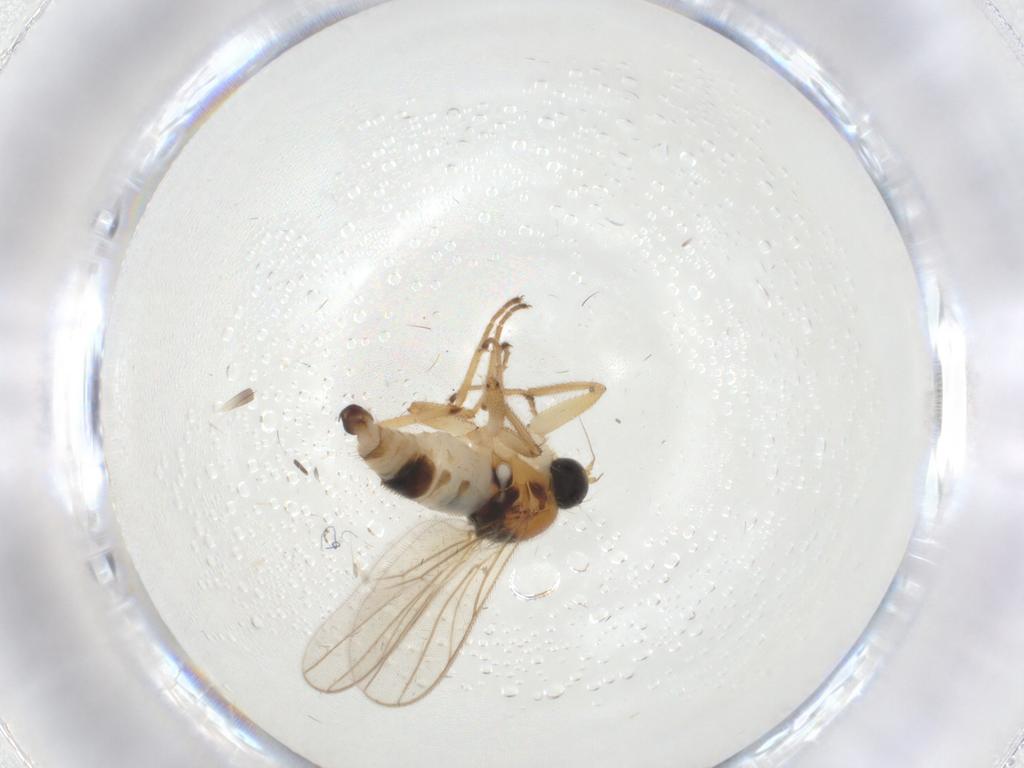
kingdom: Animalia
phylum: Arthropoda
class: Insecta
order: Diptera
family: Hybotidae
